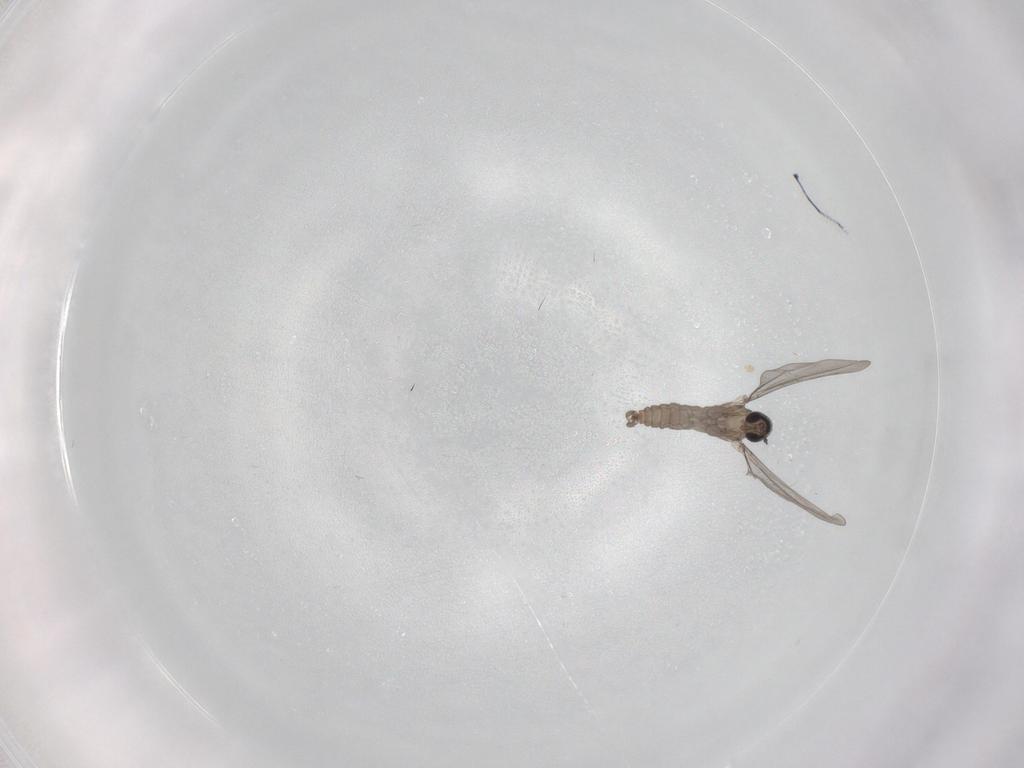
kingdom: Animalia
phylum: Arthropoda
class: Insecta
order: Diptera
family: Cecidomyiidae
